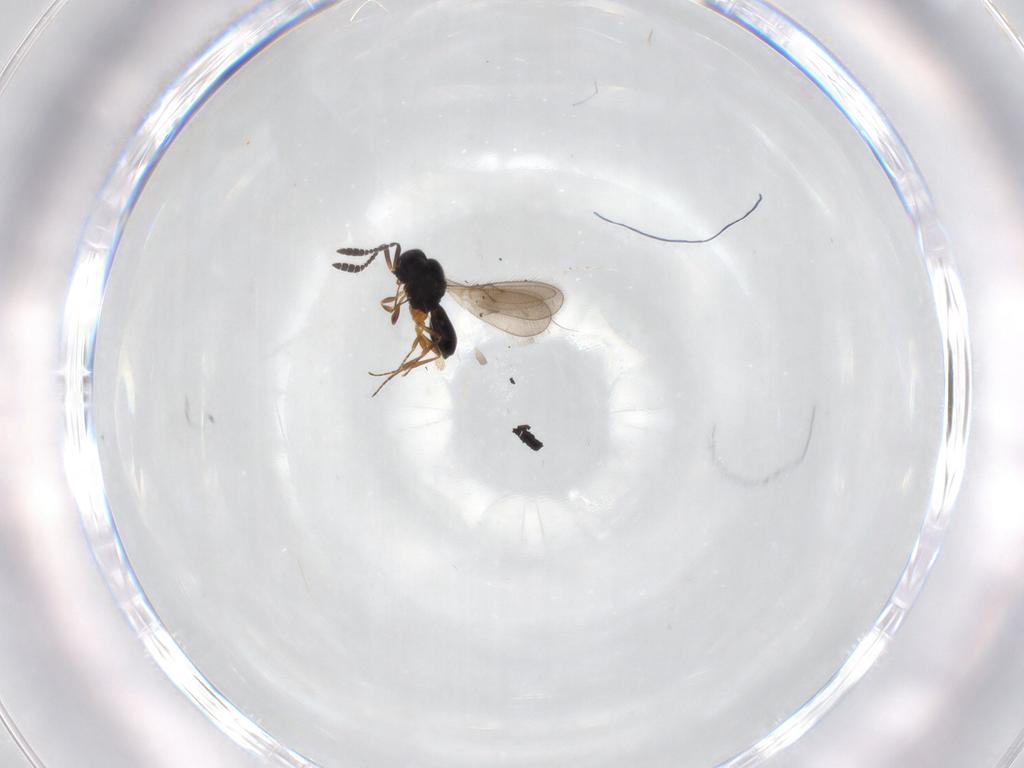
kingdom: Animalia
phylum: Arthropoda
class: Insecta
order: Hymenoptera
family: Scelionidae
